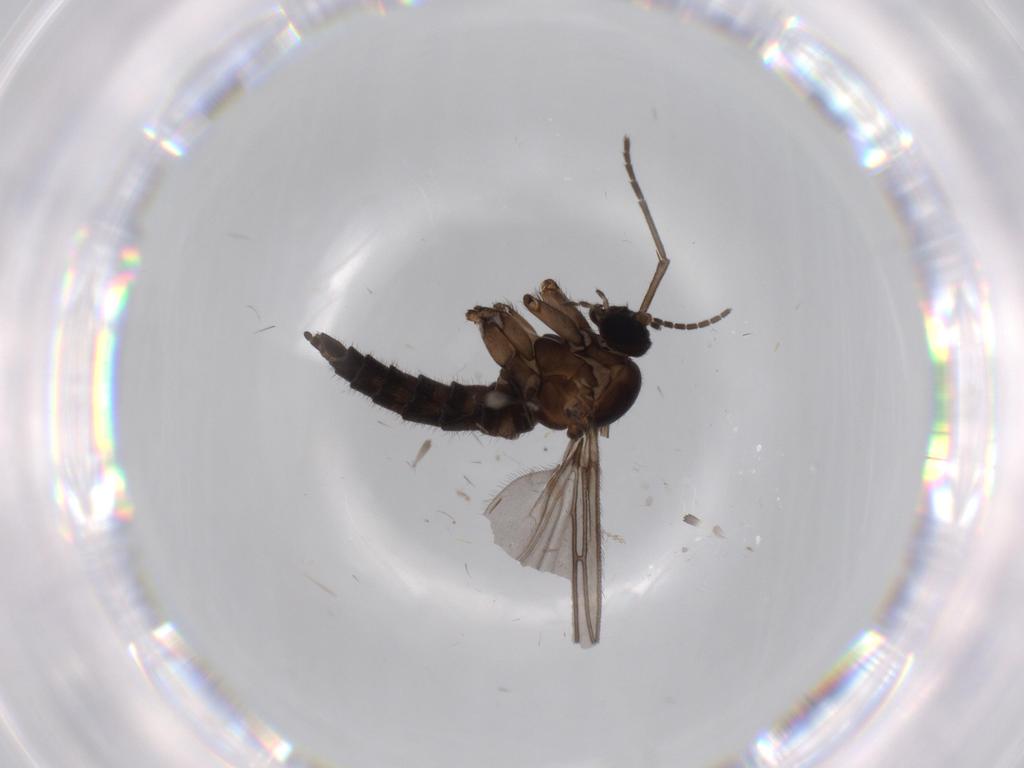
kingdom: Animalia
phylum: Arthropoda
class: Insecta
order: Diptera
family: Sciaridae
